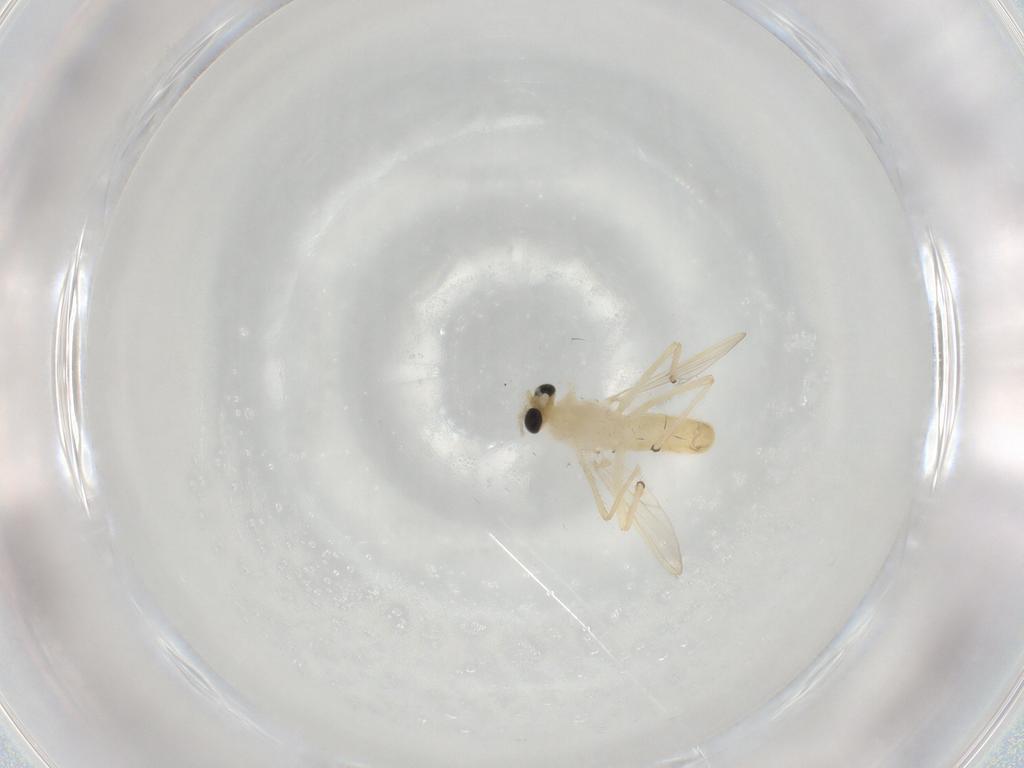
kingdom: Animalia
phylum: Arthropoda
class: Insecta
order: Diptera
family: Chironomidae
